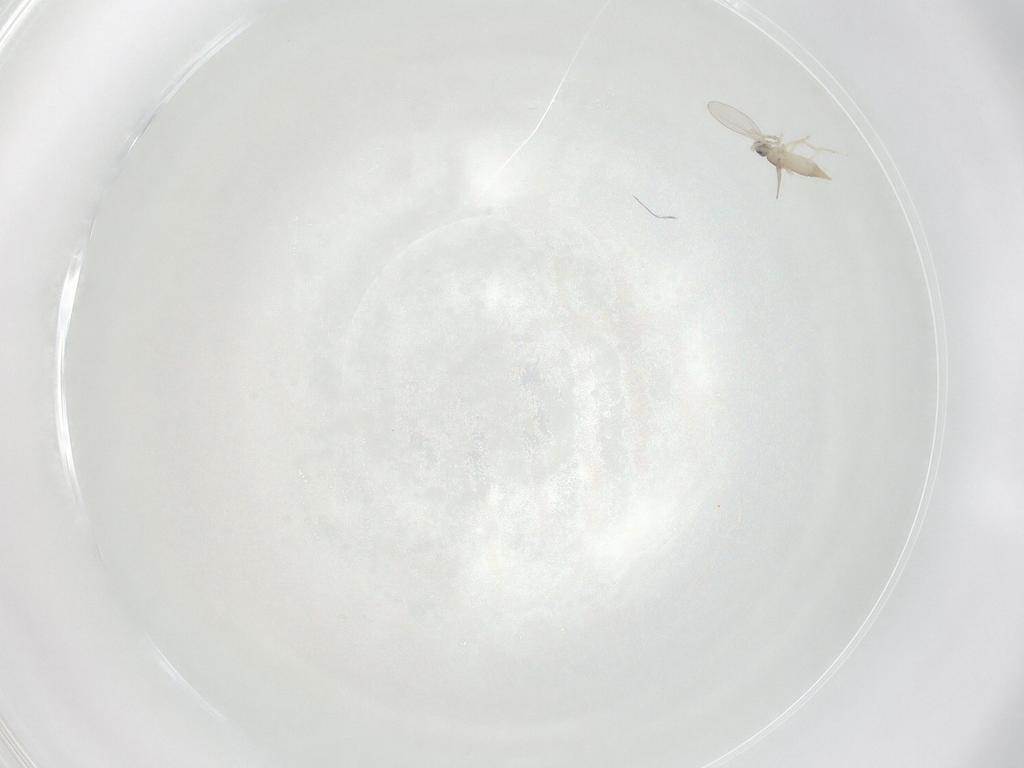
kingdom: Animalia
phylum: Arthropoda
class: Insecta
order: Diptera
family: Cecidomyiidae
